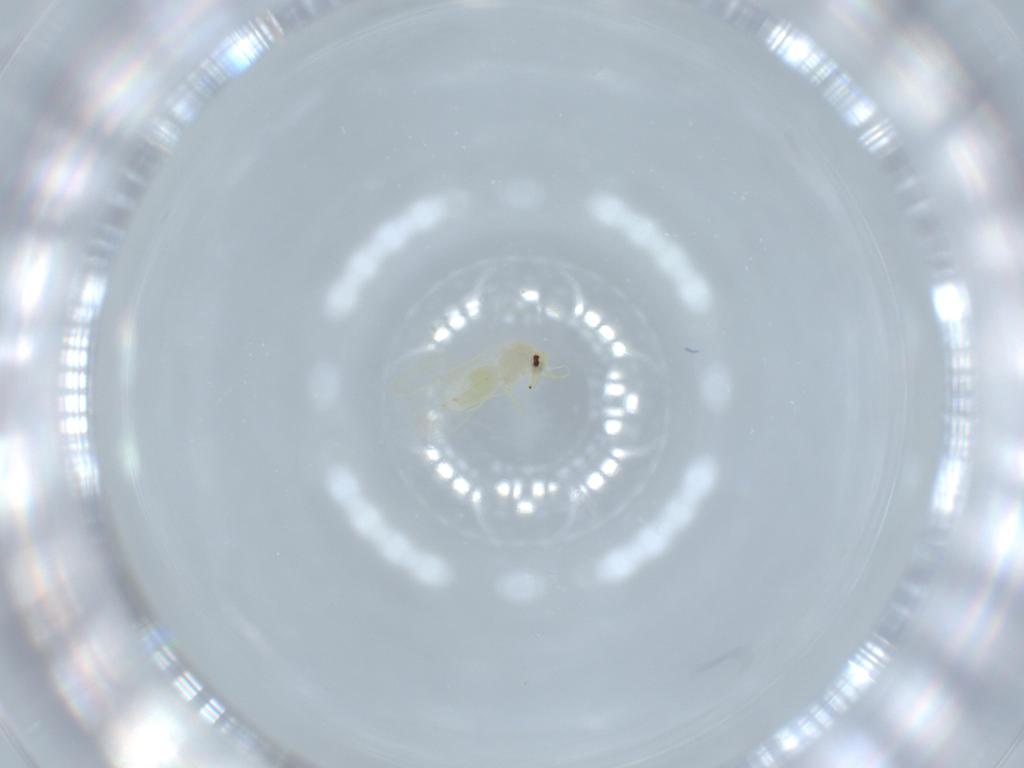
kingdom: Animalia
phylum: Arthropoda
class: Insecta
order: Hemiptera
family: Aleyrodidae
